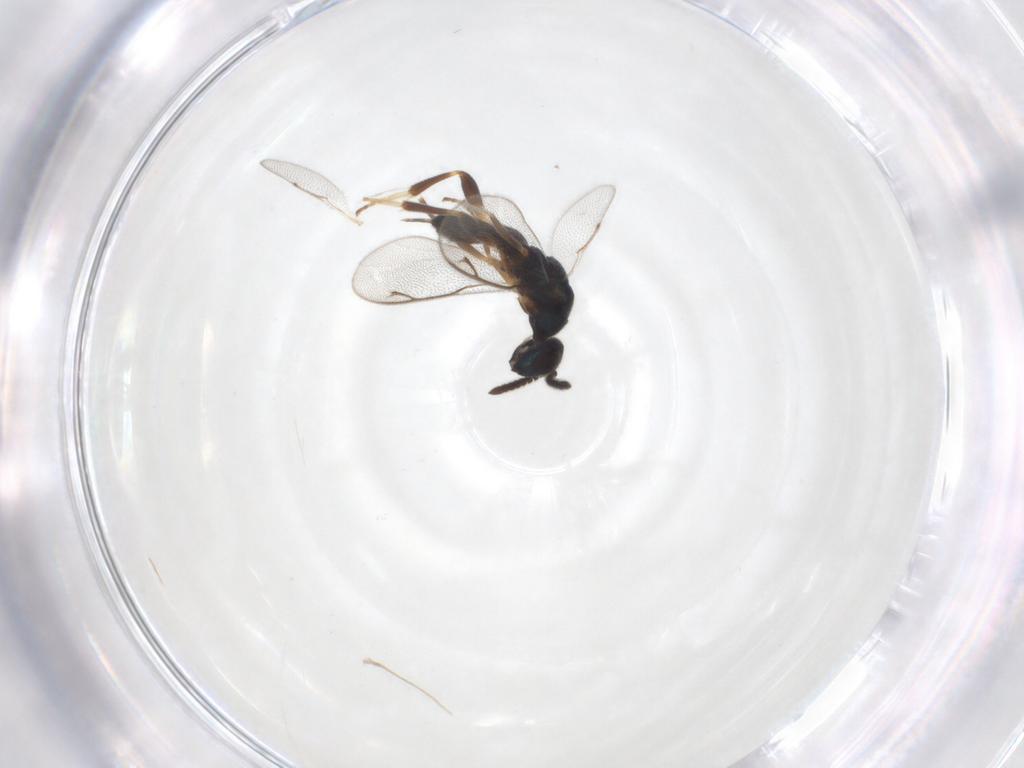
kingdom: Animalia
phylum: Arthropoda
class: Insecta
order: Hymenoptera
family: Cleonyminae
